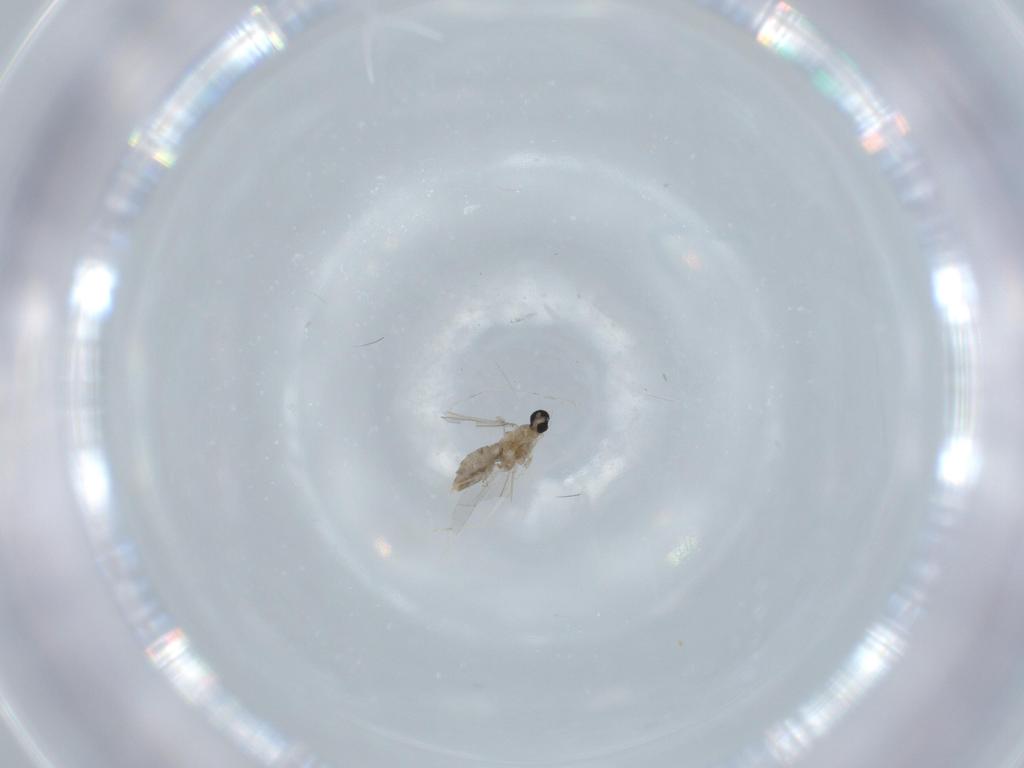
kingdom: Animalia
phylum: Arthropoda
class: Insecta
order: Diptera
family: Cecidomyiidae
